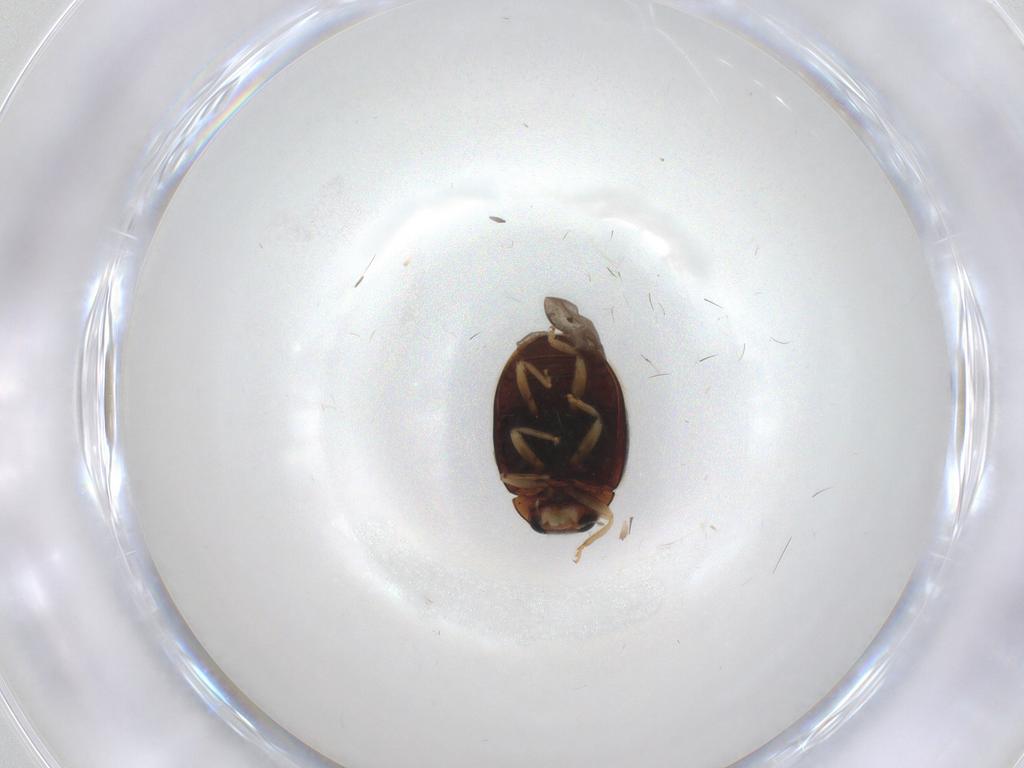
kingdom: Animalia
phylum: Arthropoda
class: Insecta
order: Coleoptera
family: Coccinellidae
